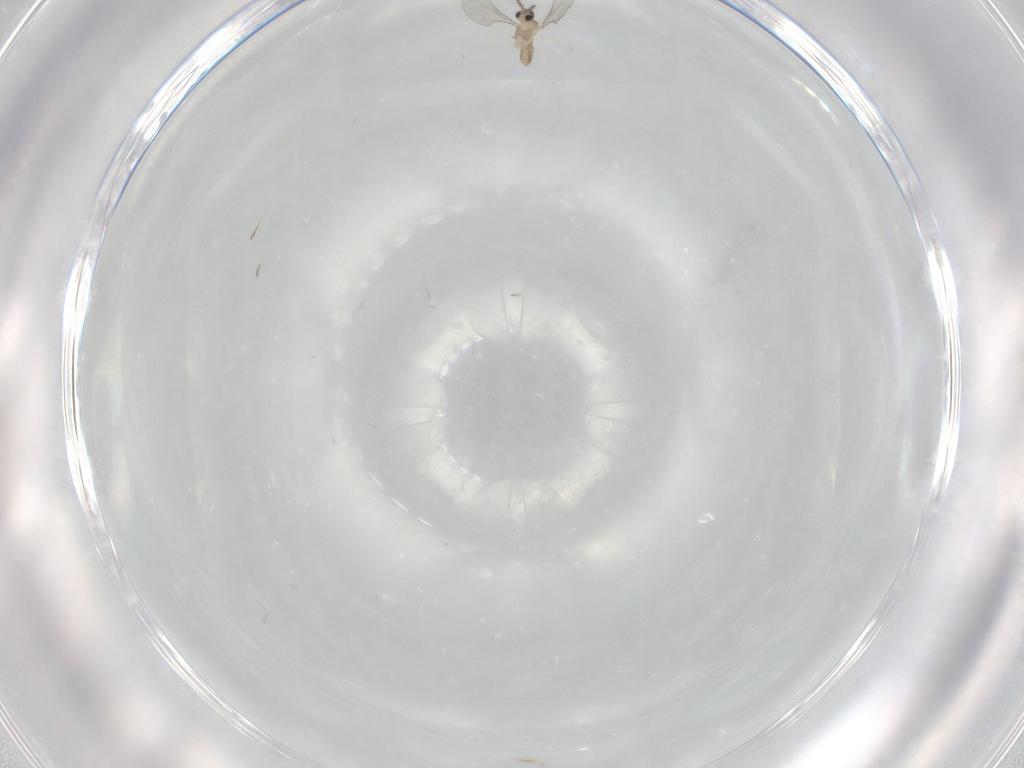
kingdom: Animalia
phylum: Arthropoda
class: Insecta
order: Diptera
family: Cecidomyiidae
